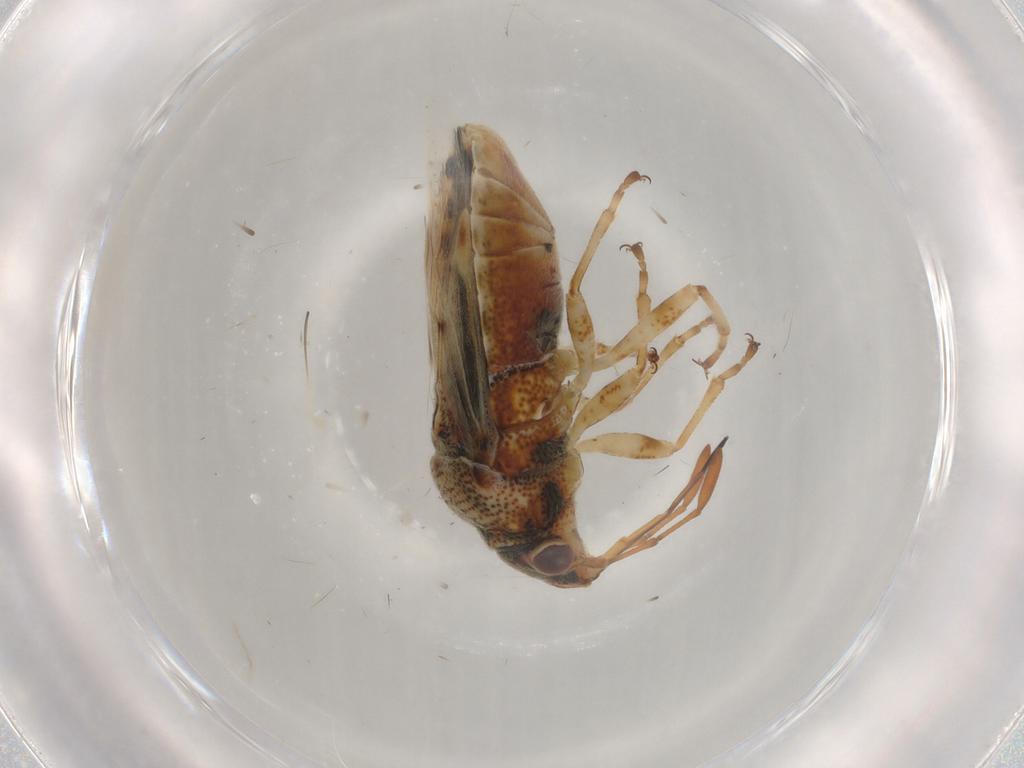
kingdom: Animalia
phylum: Arthropoda
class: Insecta
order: Hemiptera
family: Lygaeidae
